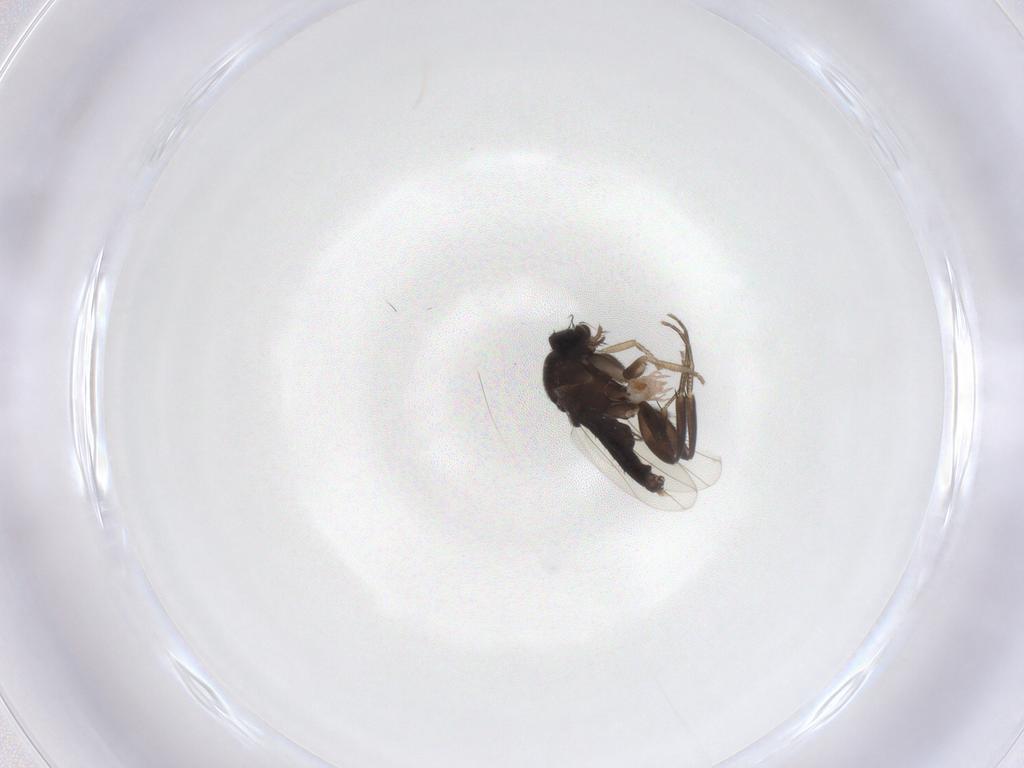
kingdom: Animalia
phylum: Arthropoda
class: Insecta
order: Diptera
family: Phoridae
